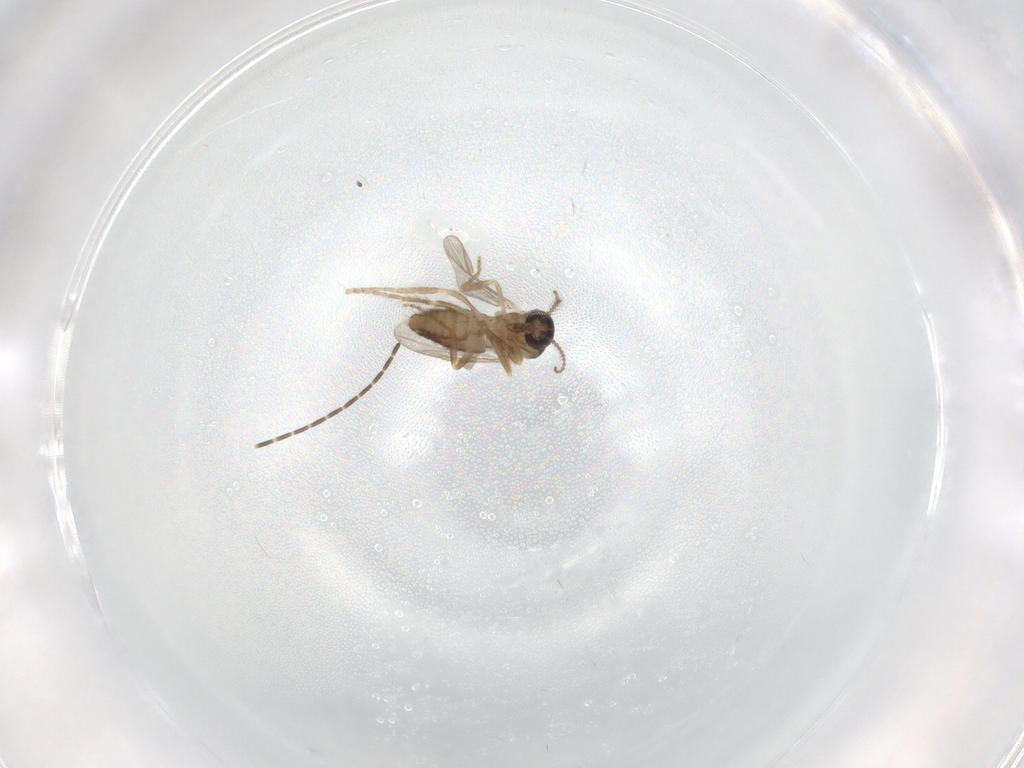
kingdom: Animalia
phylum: Arthropoda
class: Insecta
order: Diptera
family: Ceratopogonidae
